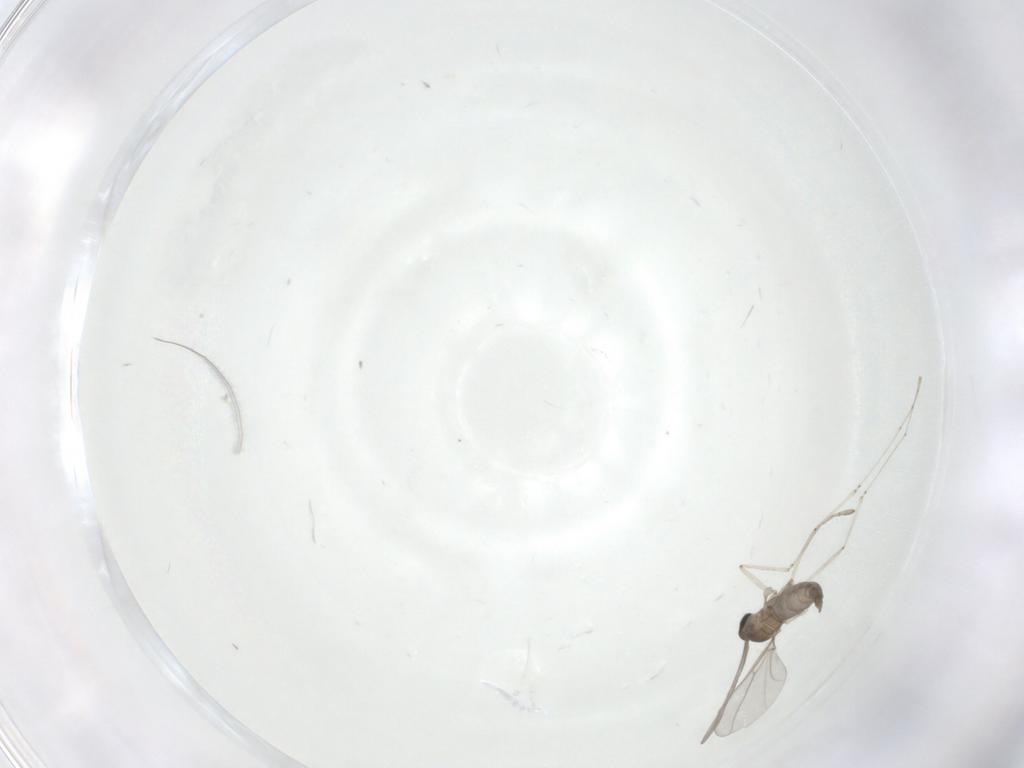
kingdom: Animalia
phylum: Arthropoda
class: Insecta
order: Diptera
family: Cecidomyiidae
